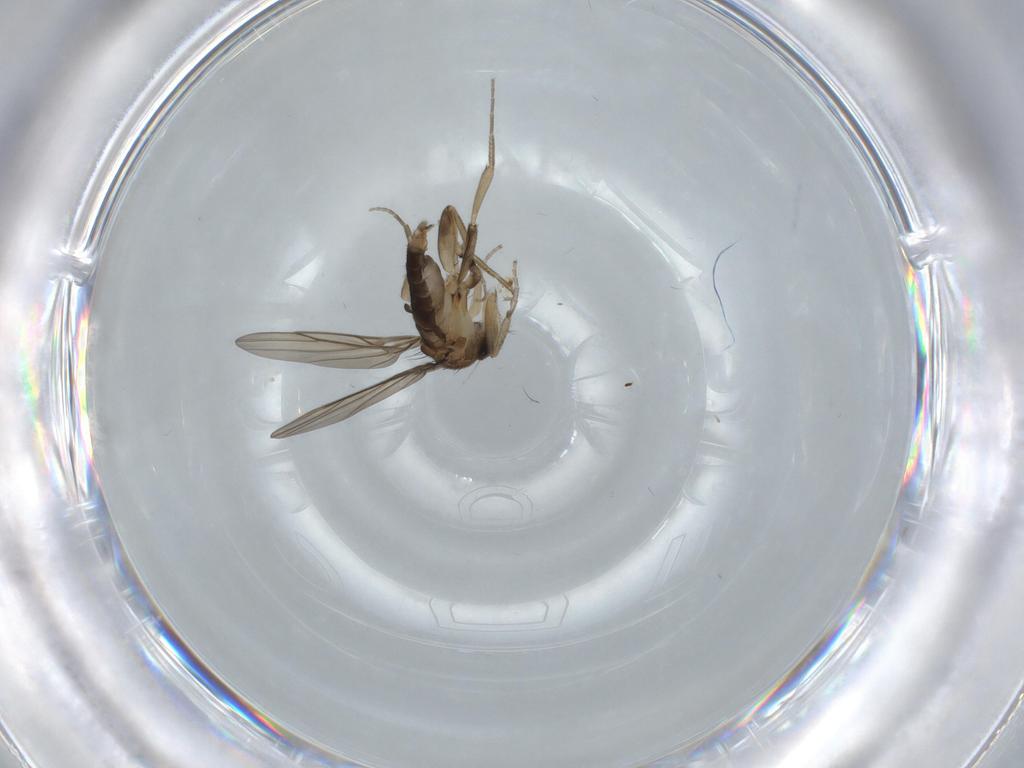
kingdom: Animalia
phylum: Arthropoda
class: Insecta
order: Diptera
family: Phoridae
